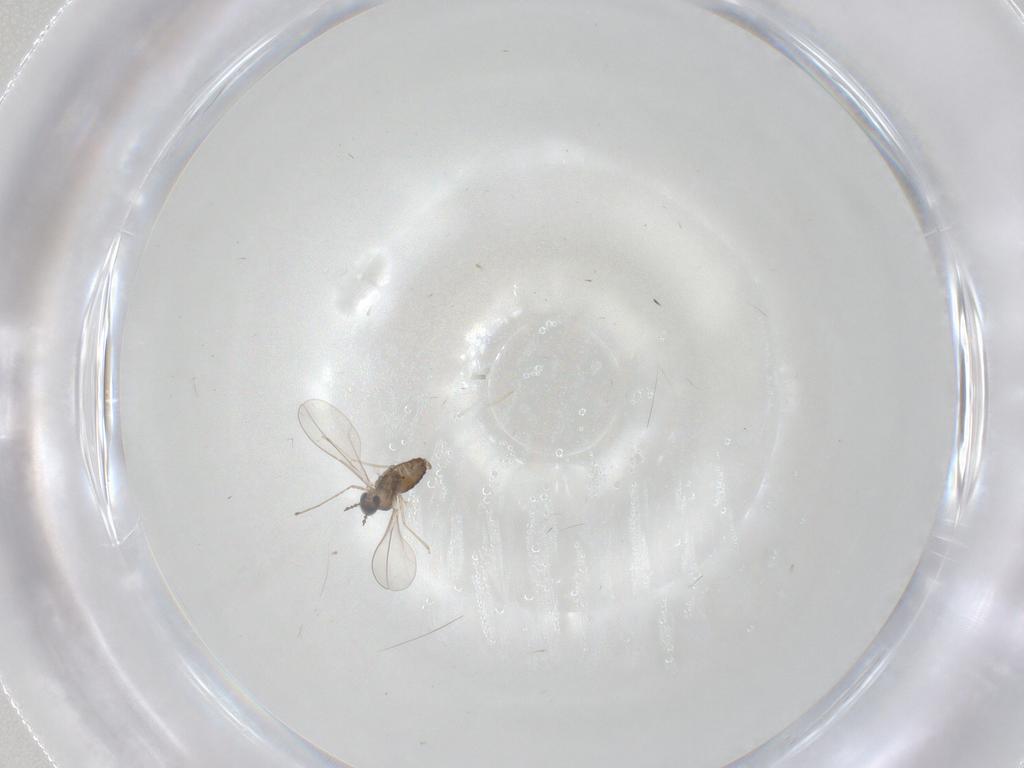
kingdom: Animalia
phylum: Arthropoda
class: Insecta
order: Diptera
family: Cecidomyiidae
